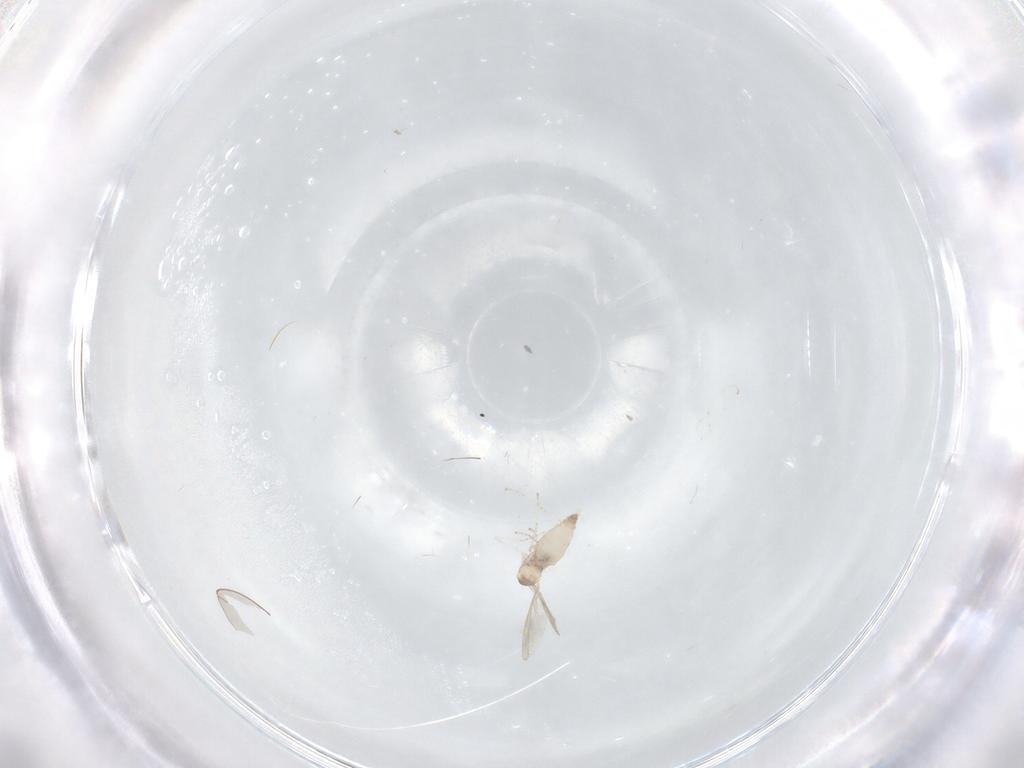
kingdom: Animalia
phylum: Arthropoda
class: Insecta
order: Diptera
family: Cecidomyiidae
